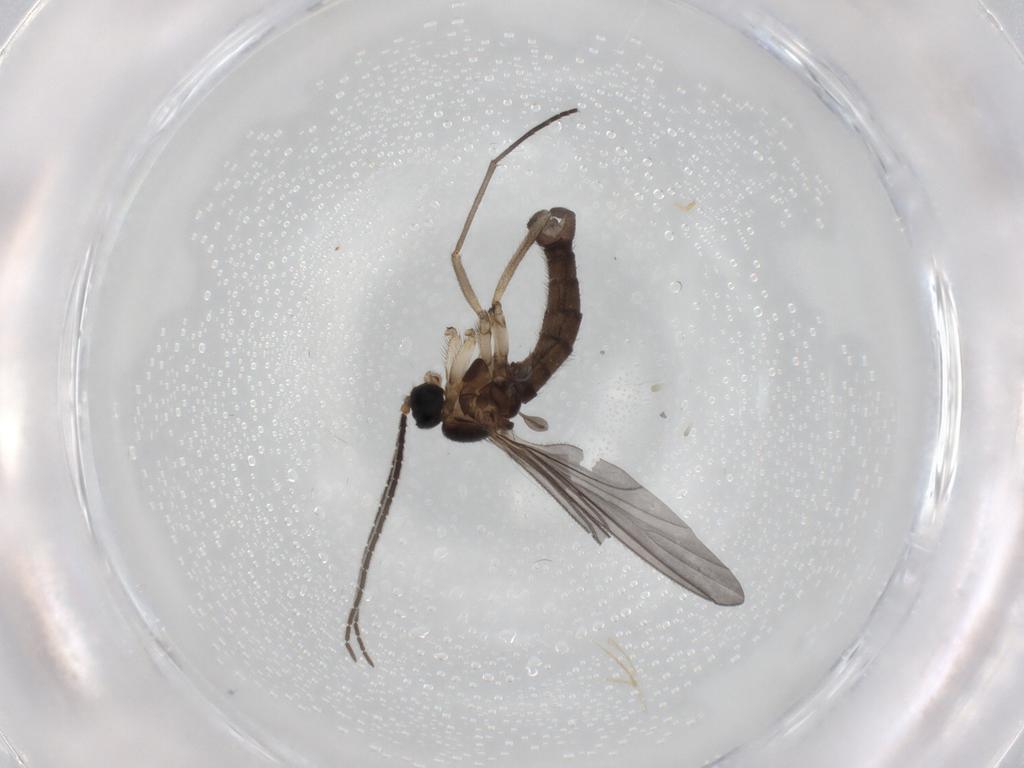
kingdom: Animalia
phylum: Arthropoda
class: Insecta
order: Diptera
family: Sciaridae
